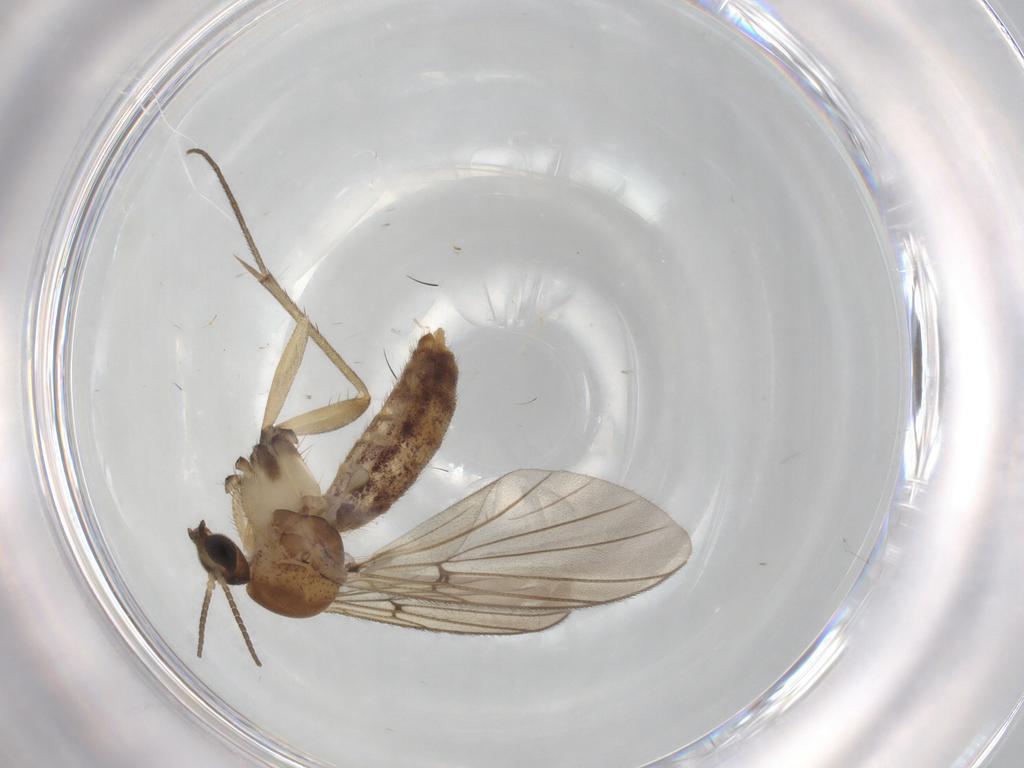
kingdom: Animalia
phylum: Arthropoda
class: Insecta
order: Diptera
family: Mycetophilidae
